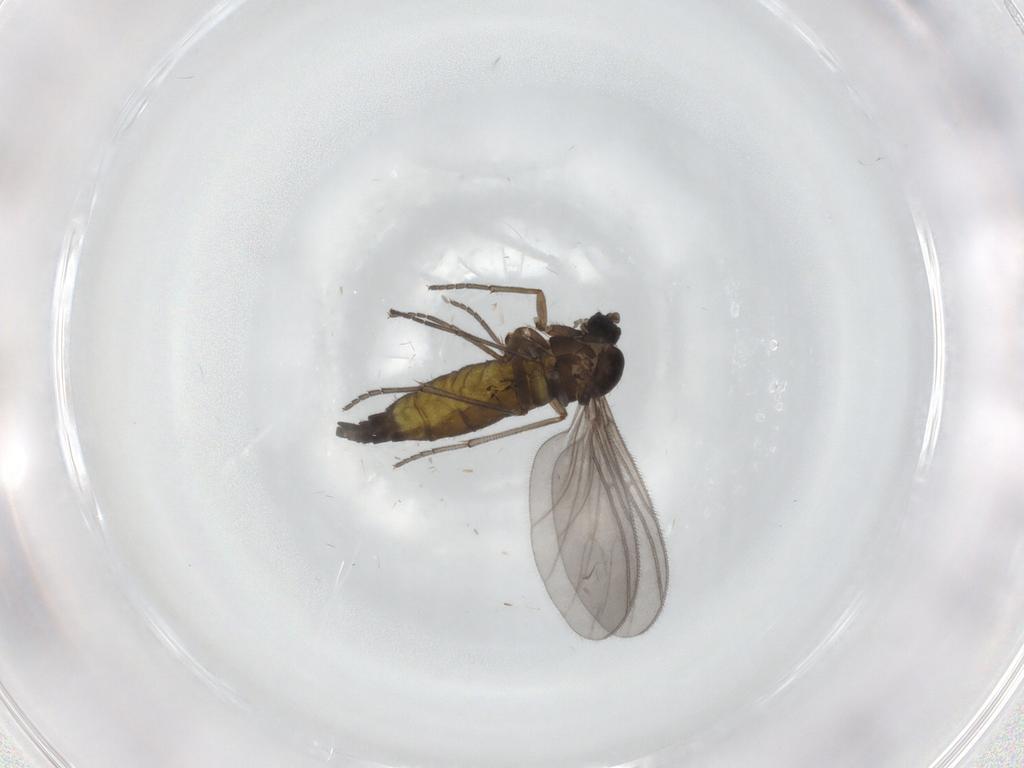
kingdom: Animalia
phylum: Arthropoda
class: Insecta
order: Diptera
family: Sciaridae
